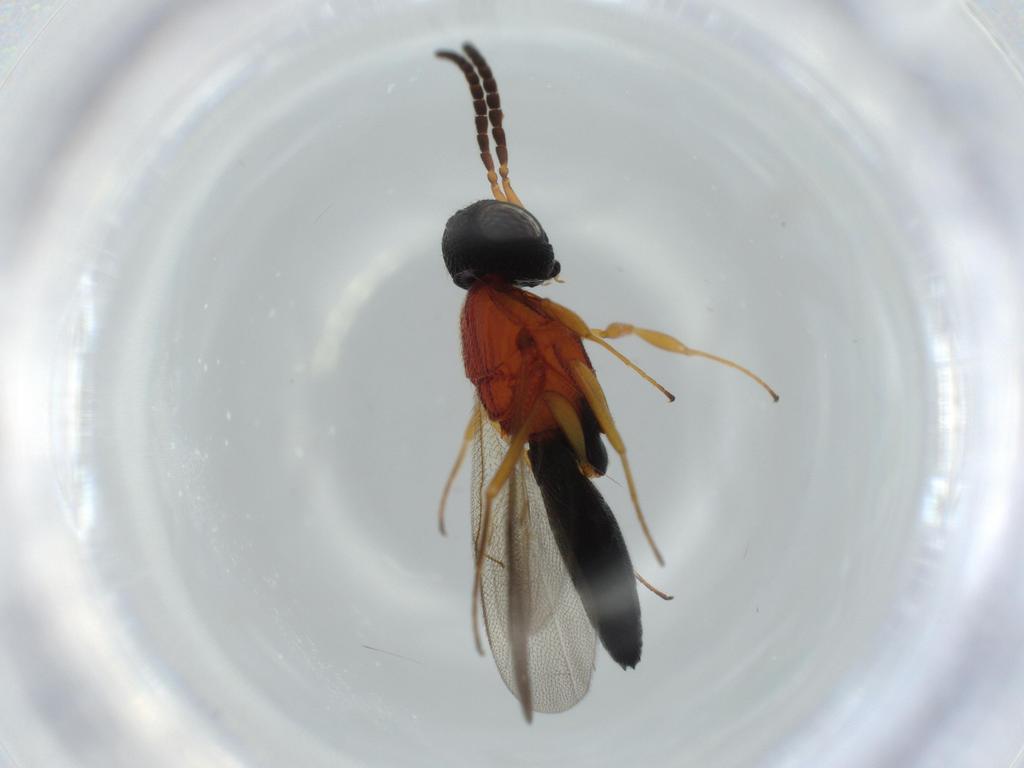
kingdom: Animalia
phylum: Arthropoda
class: Insecta
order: Hymenoptera
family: Scelionidae
